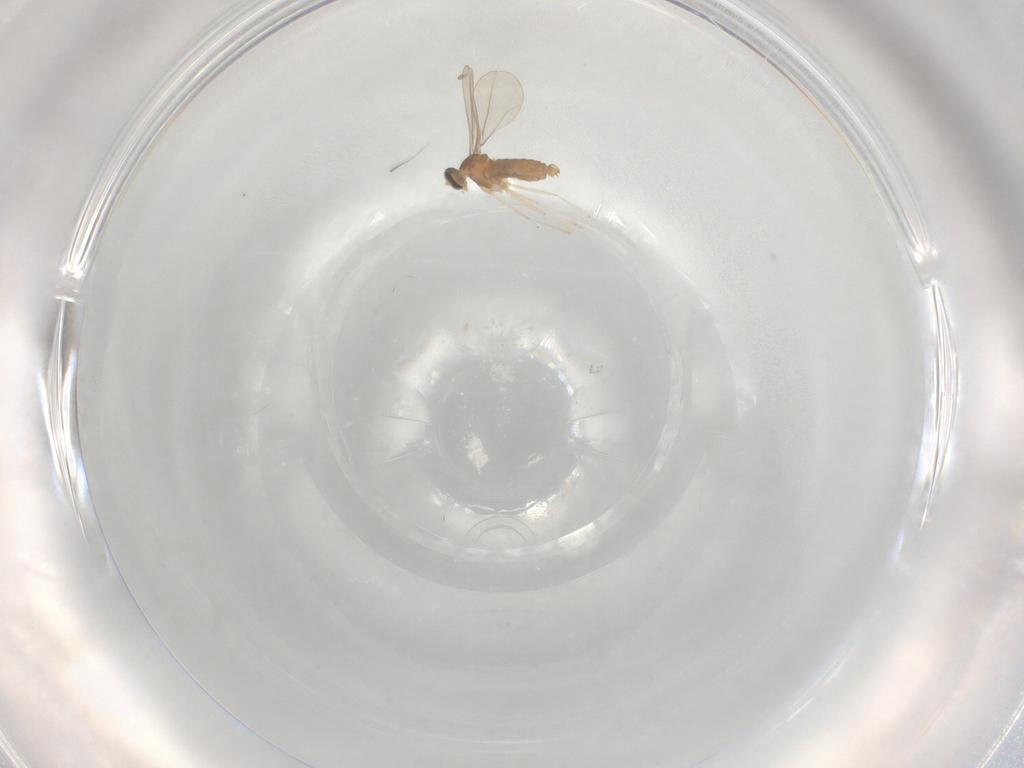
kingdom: Animalia
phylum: Arthropoda
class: Insecta
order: Diptera
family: Cecidomyiidae
